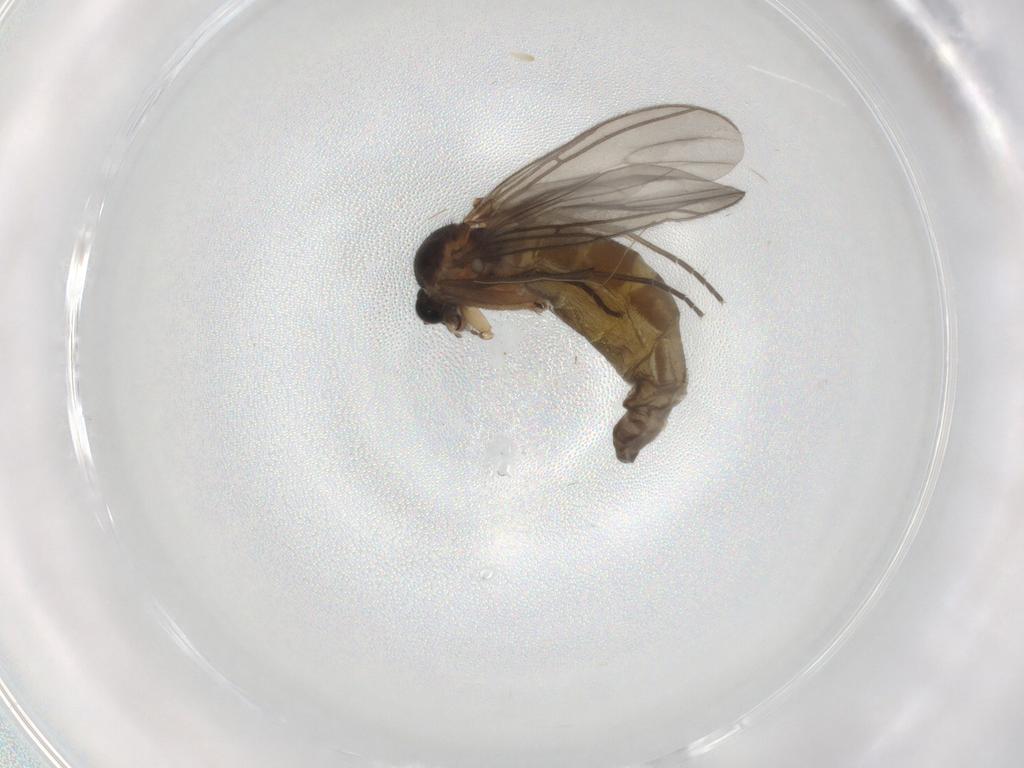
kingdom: Animalia
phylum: Arthropoda
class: Insecta
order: Diptera
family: Sciaridae
